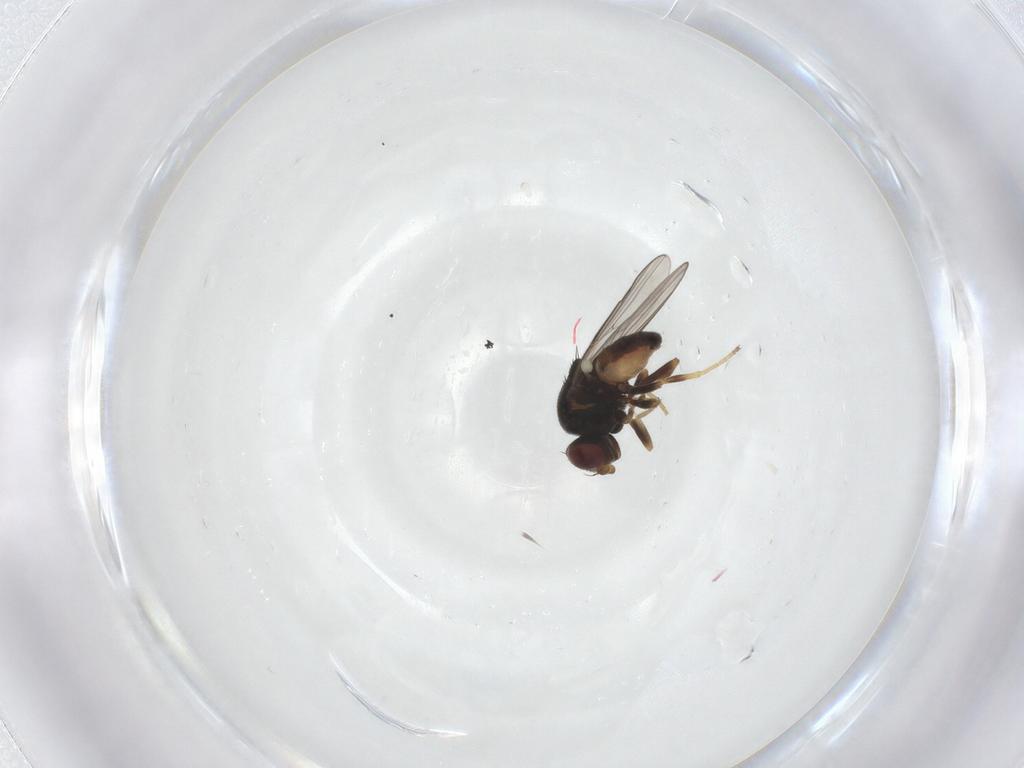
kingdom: Animalia
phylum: Arthropoda
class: Insecta
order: Diptera
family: Chloropidae
